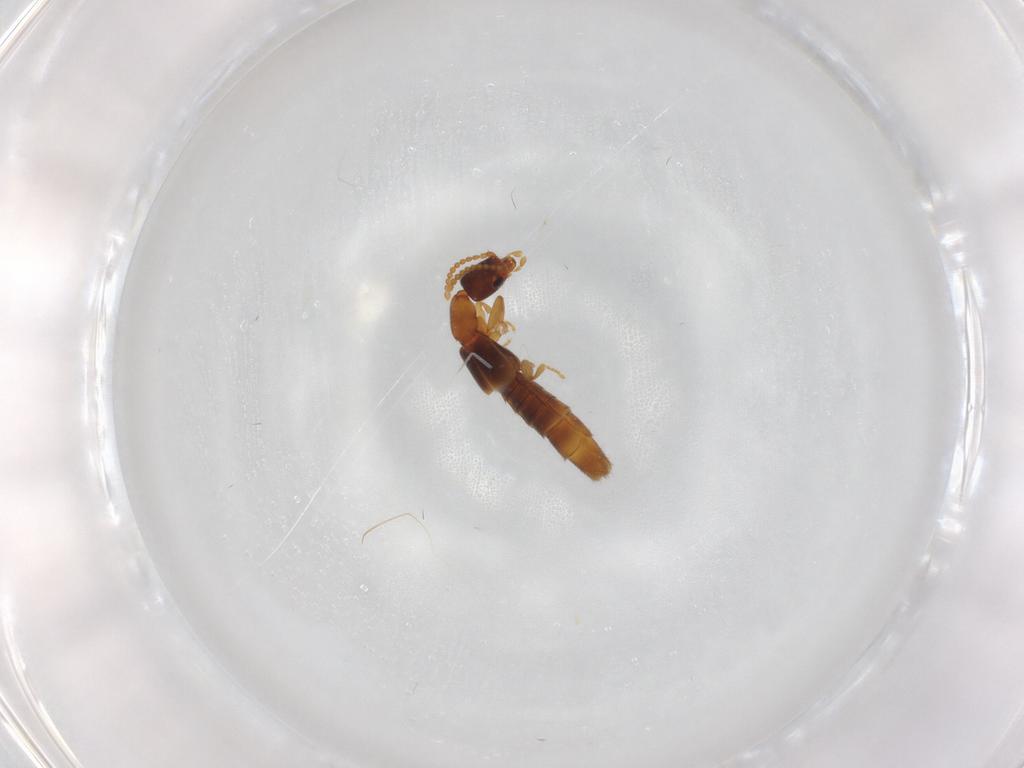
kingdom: Animalia
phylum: Arthropoda
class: Insecta
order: Coleoptera
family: Staphylinidae
